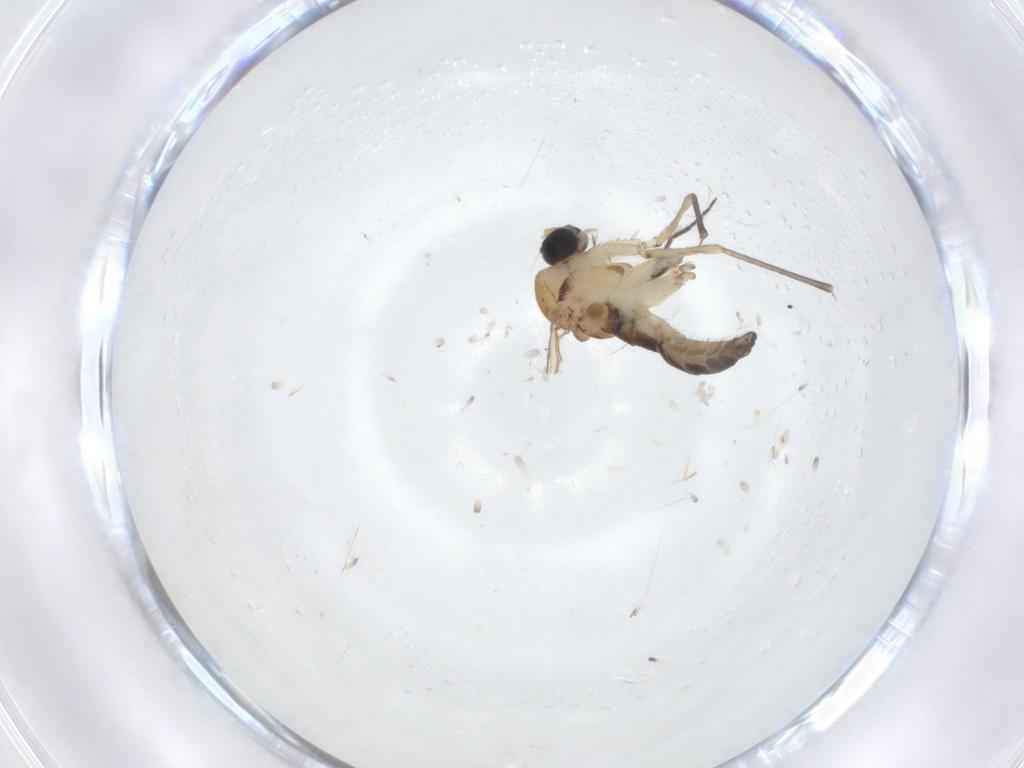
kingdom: Animalia
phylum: Arthropoda
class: Insecta
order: Diptera
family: Sciaridae
